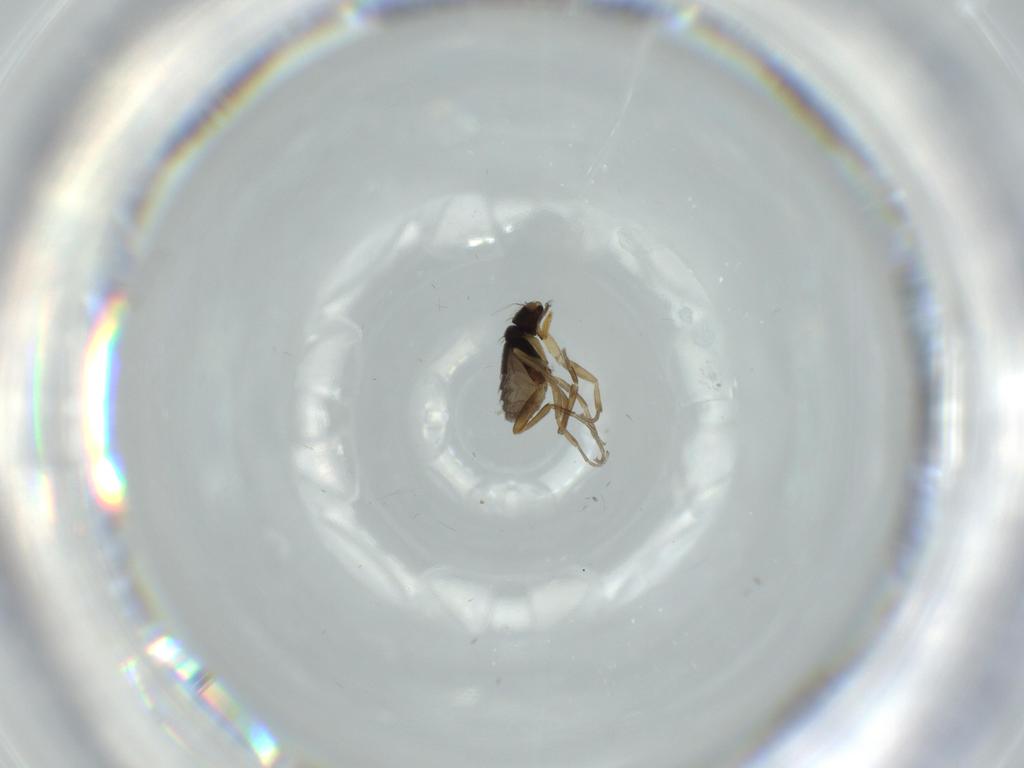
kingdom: Animalia
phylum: Arthropoda
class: Insecta
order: Diptera
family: Phoridae
